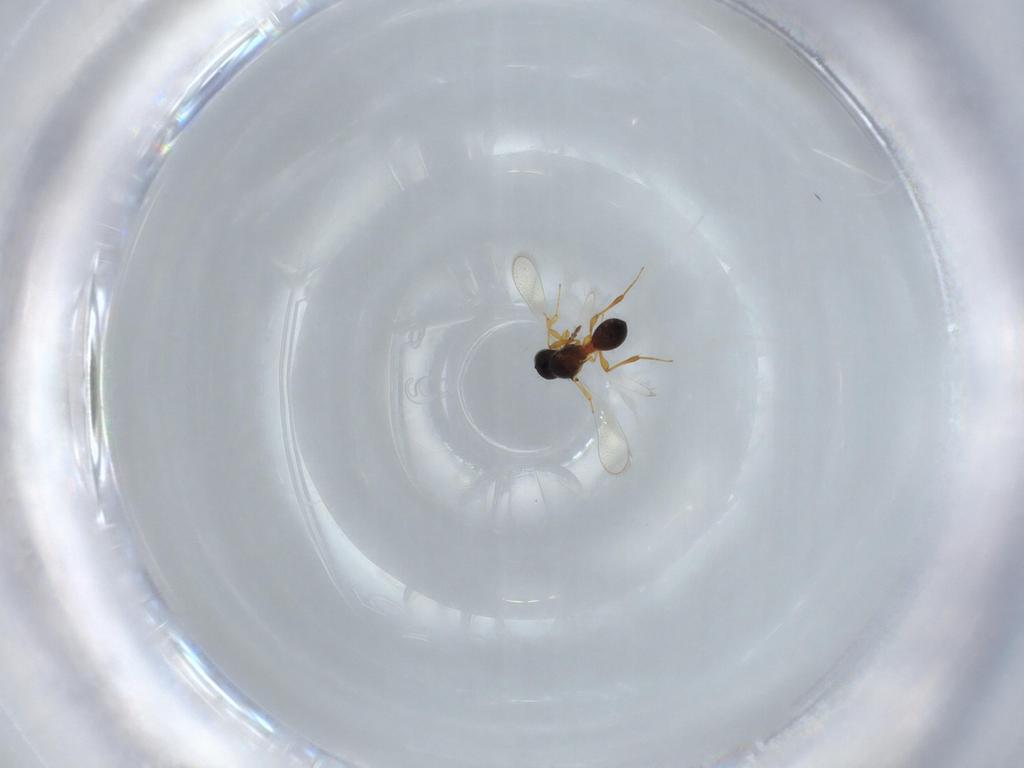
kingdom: Animalia
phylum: Arthropoda
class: Insecta
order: Hymenoptera
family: Platygastridae
